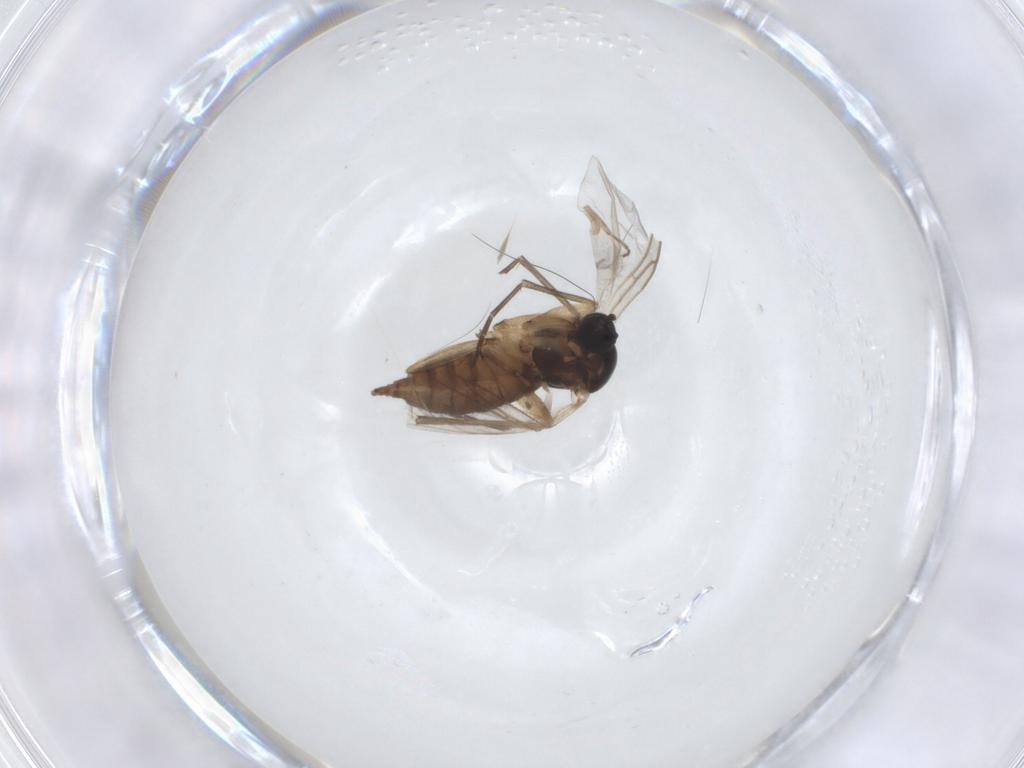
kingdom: Animalia
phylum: Arthropoda
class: Insecta
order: Diptera
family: Sciaridae
